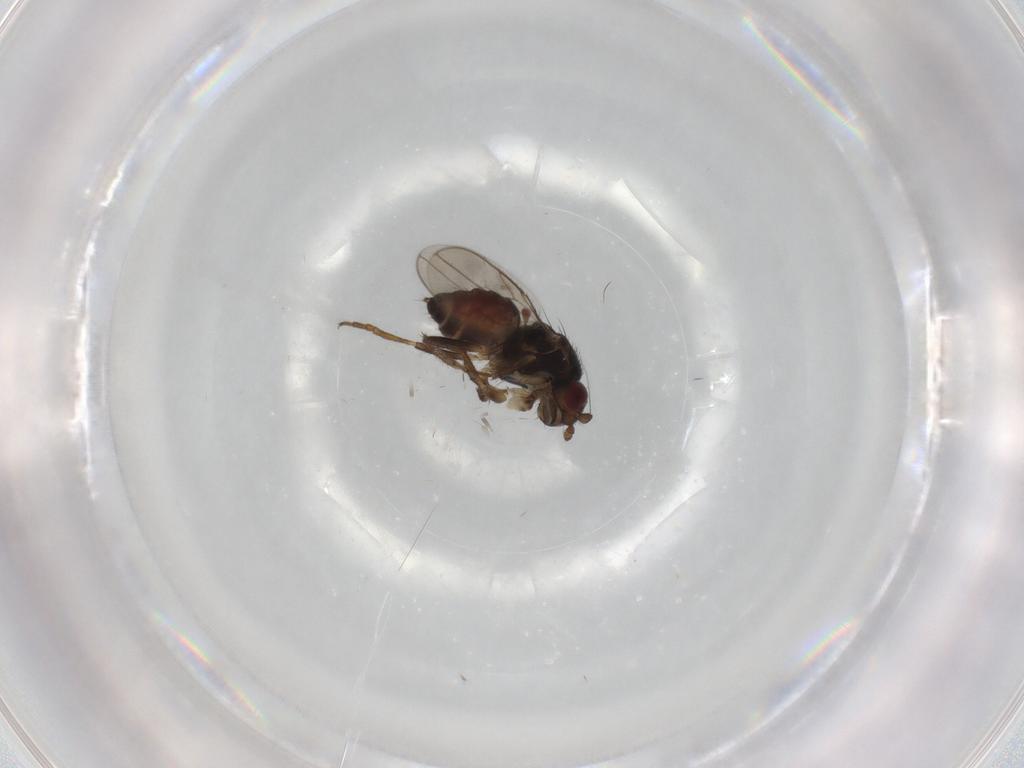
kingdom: Animalia
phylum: Arthropoda
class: Insecta
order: Diptera
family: Sphaeroceridae
